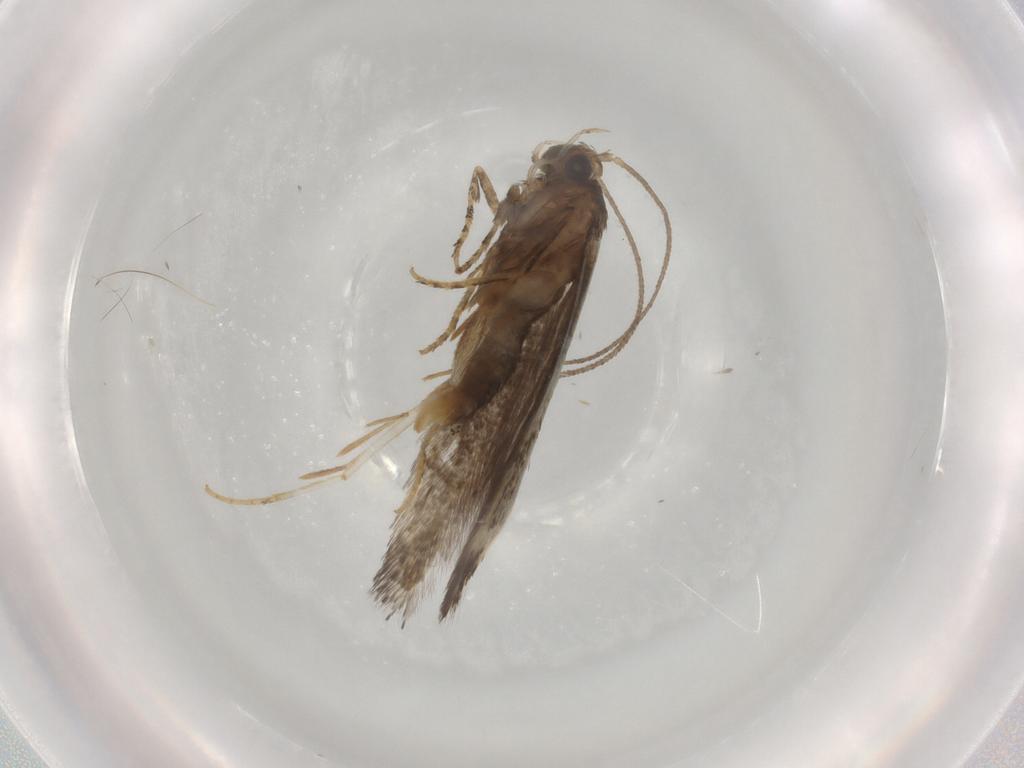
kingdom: Animalia
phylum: Arthropoda
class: Insecta
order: Lepidoptera
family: Elachistidae
